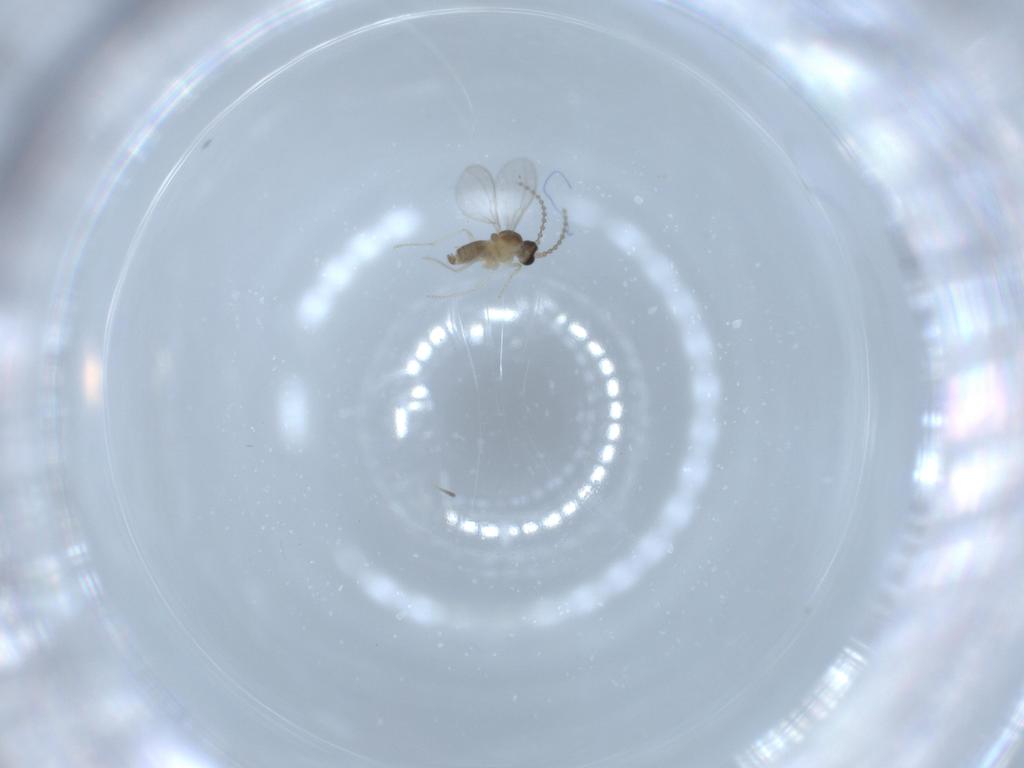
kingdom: Animalia
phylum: Arthropoda
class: Insecta
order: Diptera
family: Cecidomyiidae
